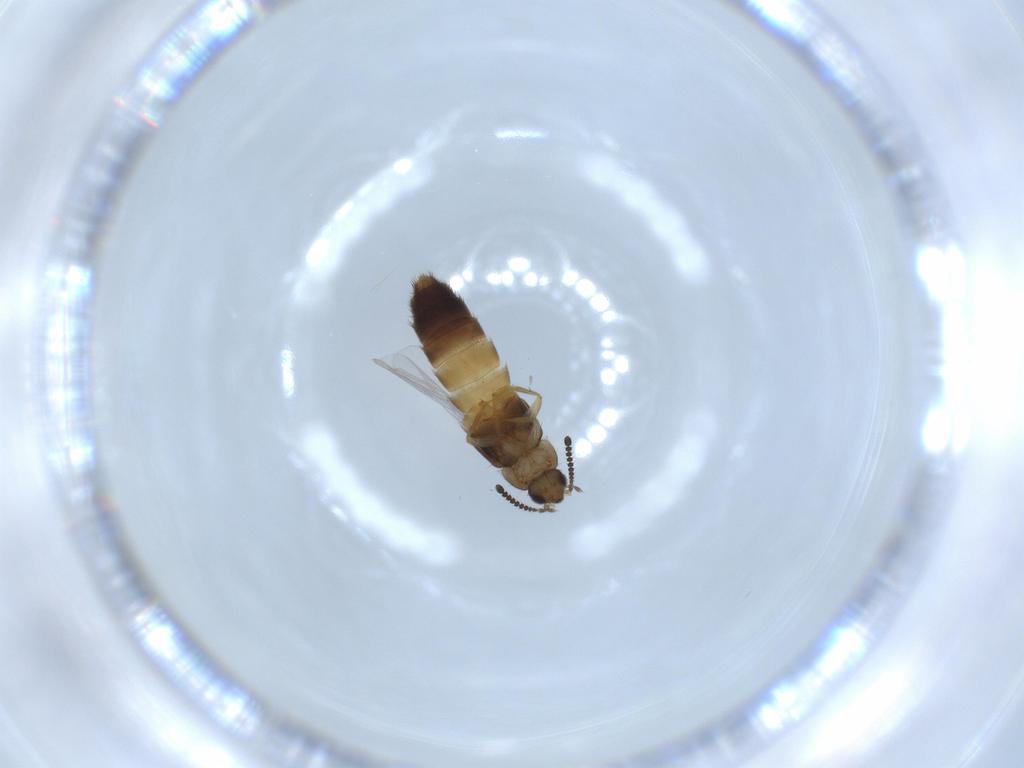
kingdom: Animalia
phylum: Arthropoda
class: Insecta
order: Coleoptera
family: Staphylinidae
